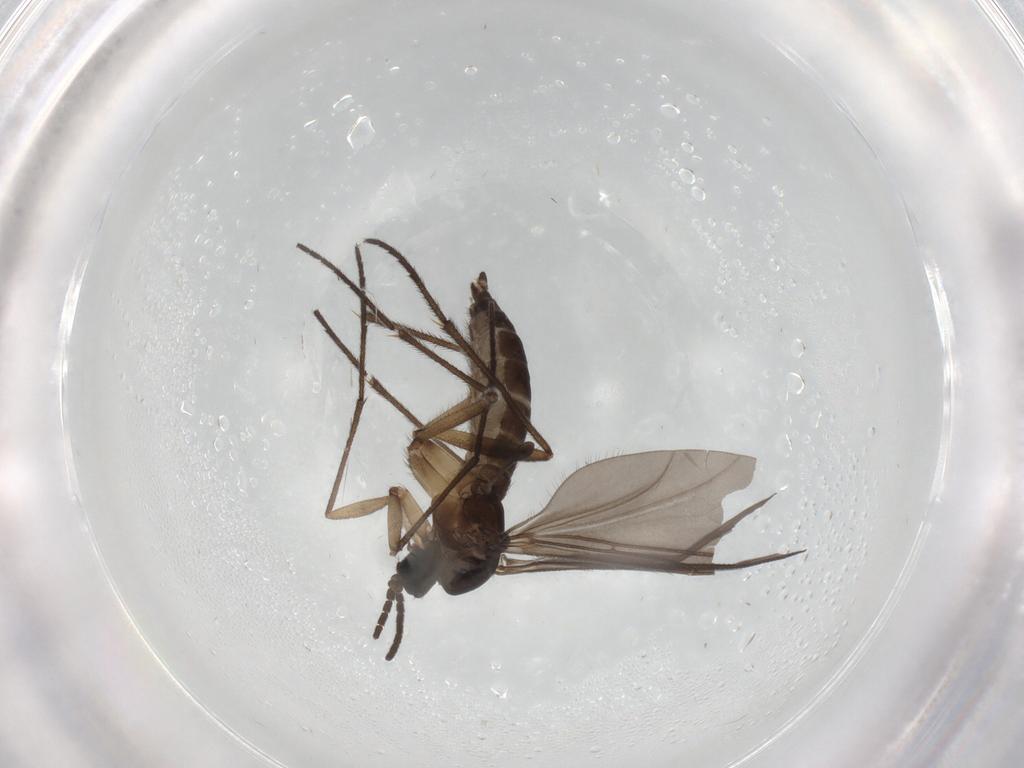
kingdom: Animalia
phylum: Arthropoda
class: Insecta
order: Diptera
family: Sciaridae
